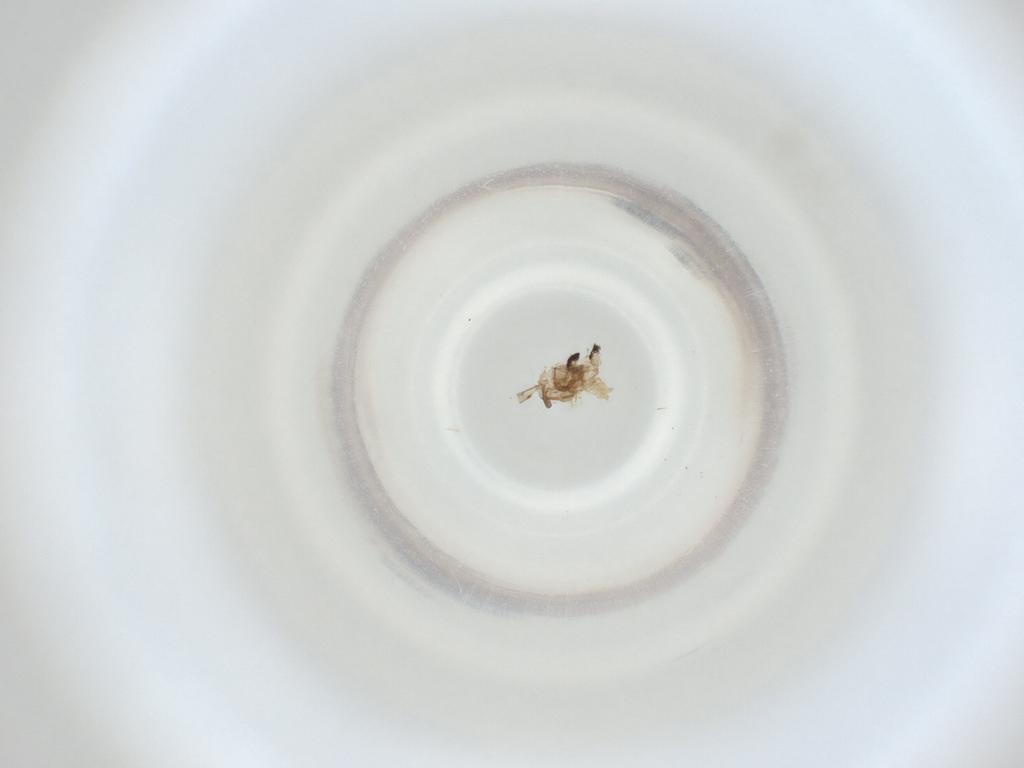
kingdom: Animalia
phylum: Arthropoda
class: Insecta
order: Diptera
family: Cecidomyiidae
